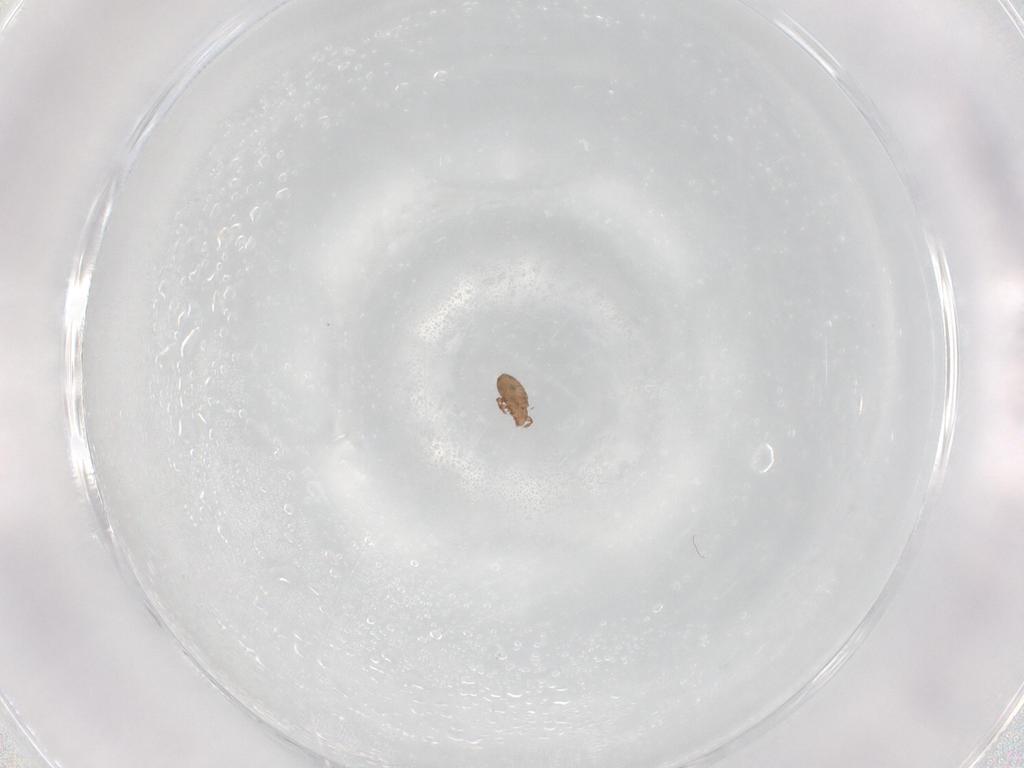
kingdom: Animalia
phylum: Arthropoda
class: Arachnida
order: Sarcoptiformes
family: Eremaeidae
